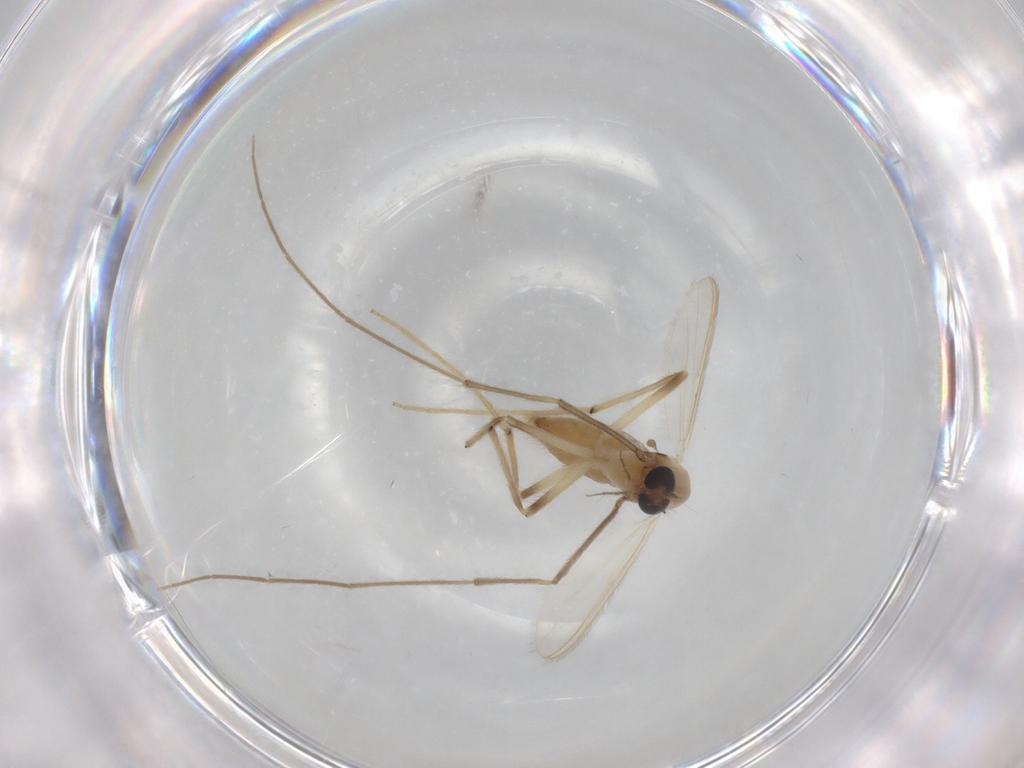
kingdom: Animalia
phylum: Arthropoda
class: Insecta
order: Diptera
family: Chironomidae
